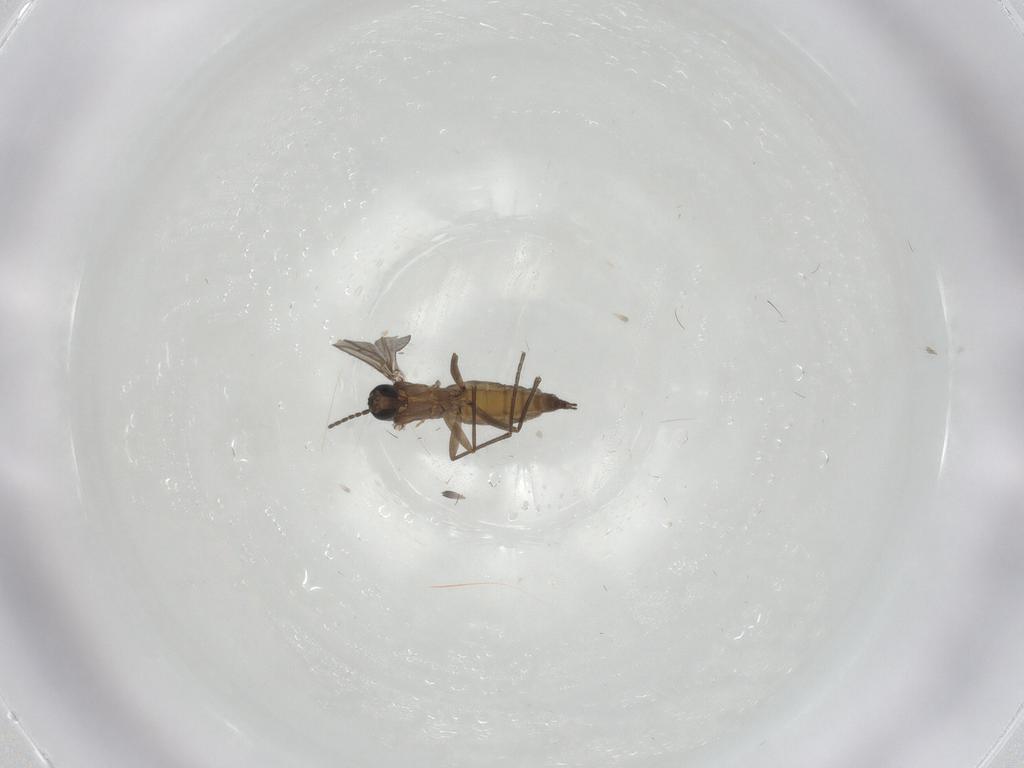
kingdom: Animalia
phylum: Arthropoda
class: Insecta
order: Diptera
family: Sciaridae
